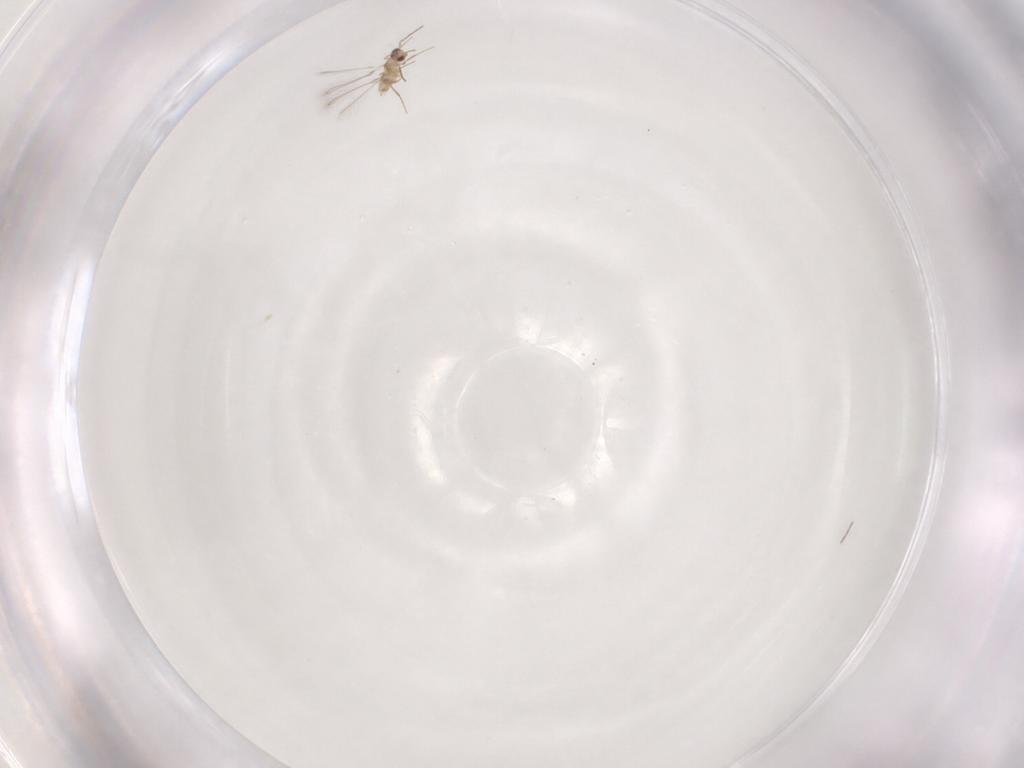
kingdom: Animalia
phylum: Arthropoda
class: Insecta
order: Hymenoptera
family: Mymaridae
